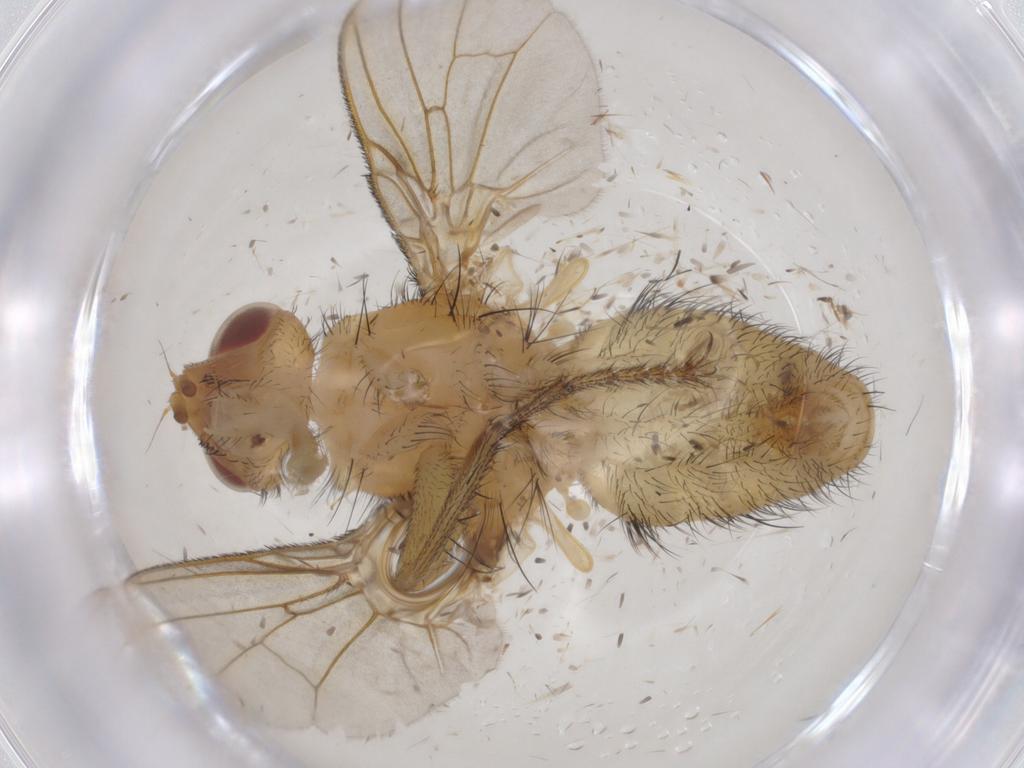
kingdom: Animalia
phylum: Arthropoda
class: Insecta
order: Diptera
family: Tachinidae
